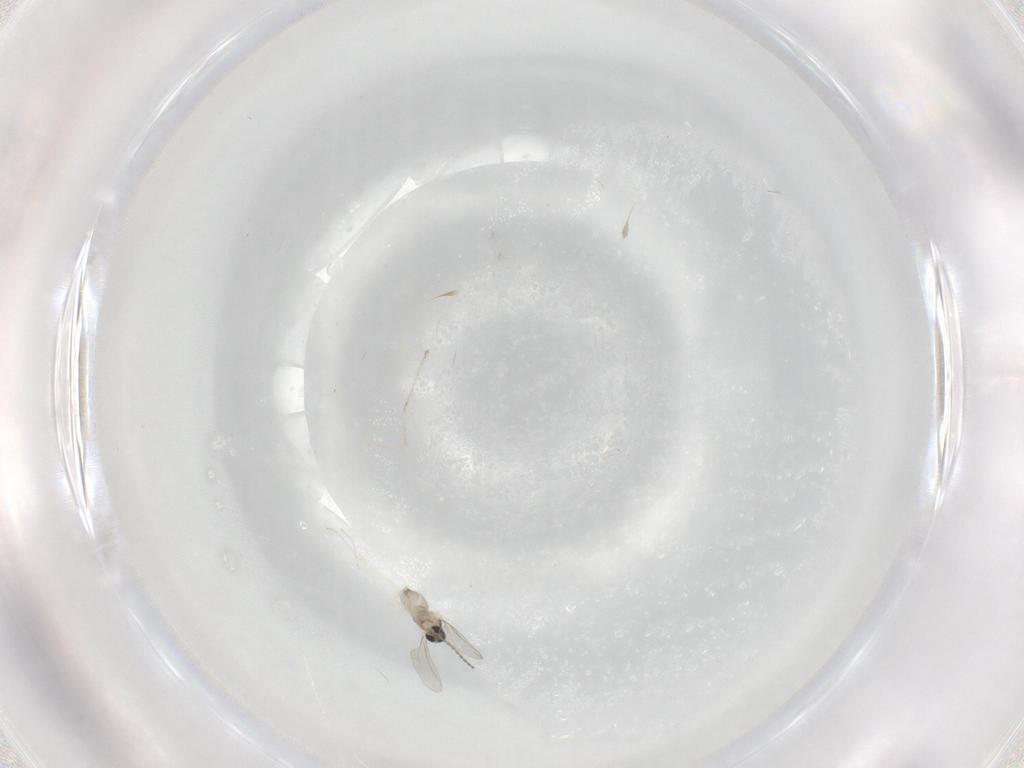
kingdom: Animalia
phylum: Arthropoda
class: Insecta
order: Diptera
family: Cecidomyiidae
